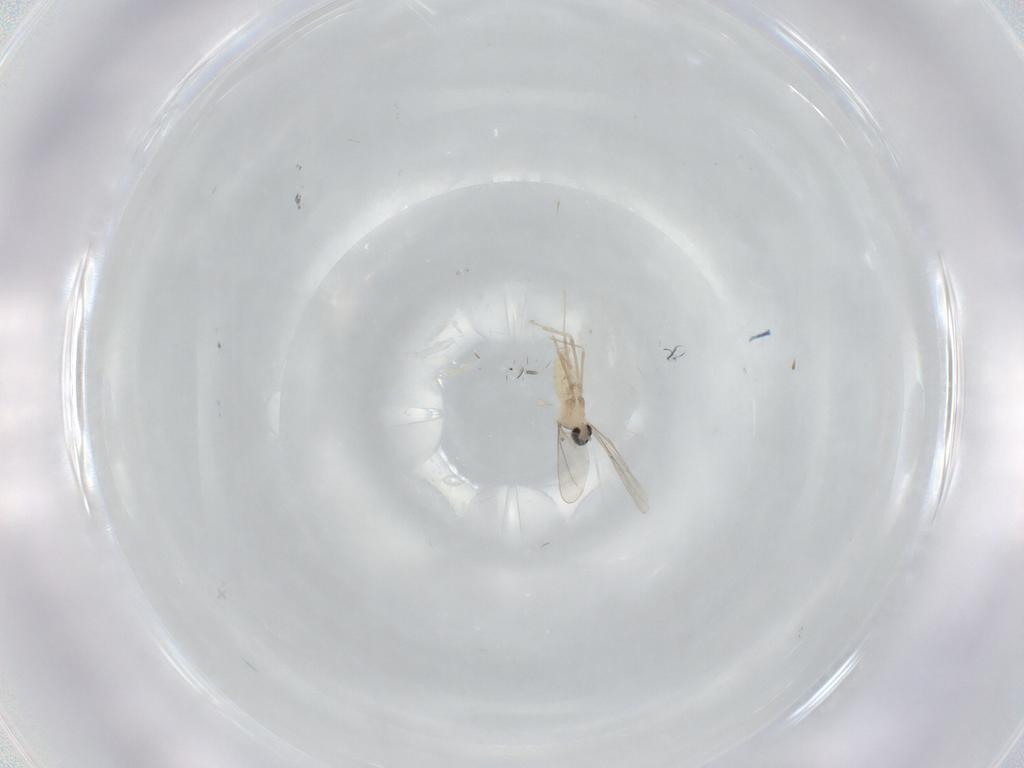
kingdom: Animalia
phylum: Arthropoda
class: Insecta
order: Diptera
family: Cecidomyiidae
